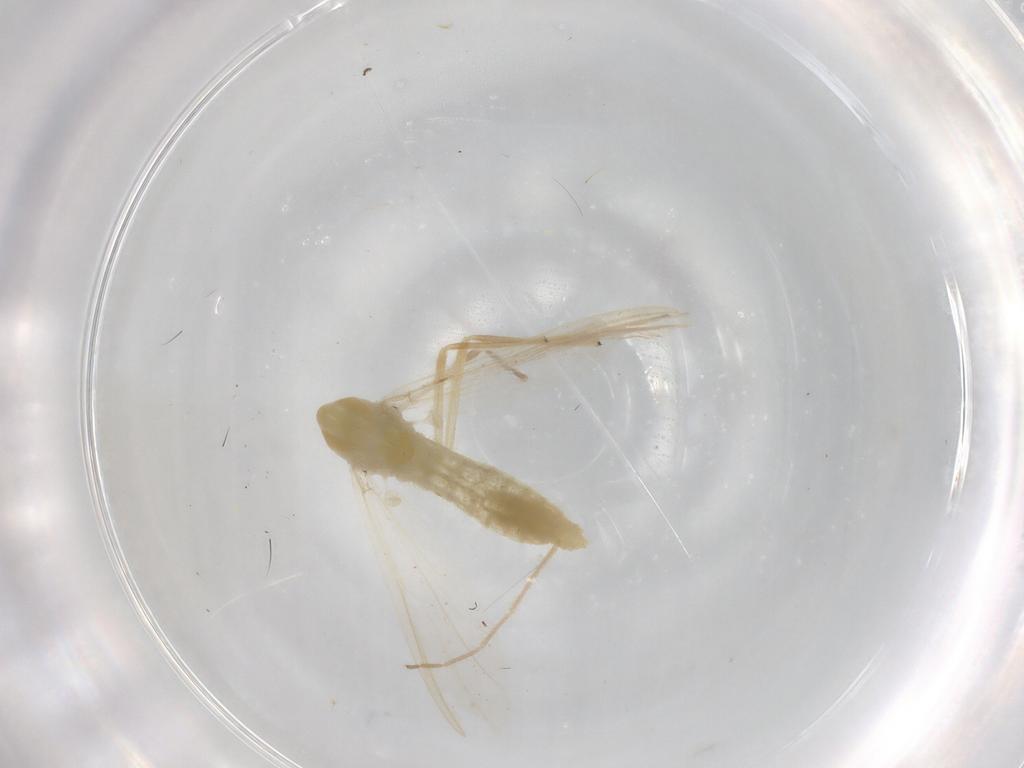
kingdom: Animalia
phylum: Arthropoda
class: Insecta
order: Diptera
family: Chironomidae
